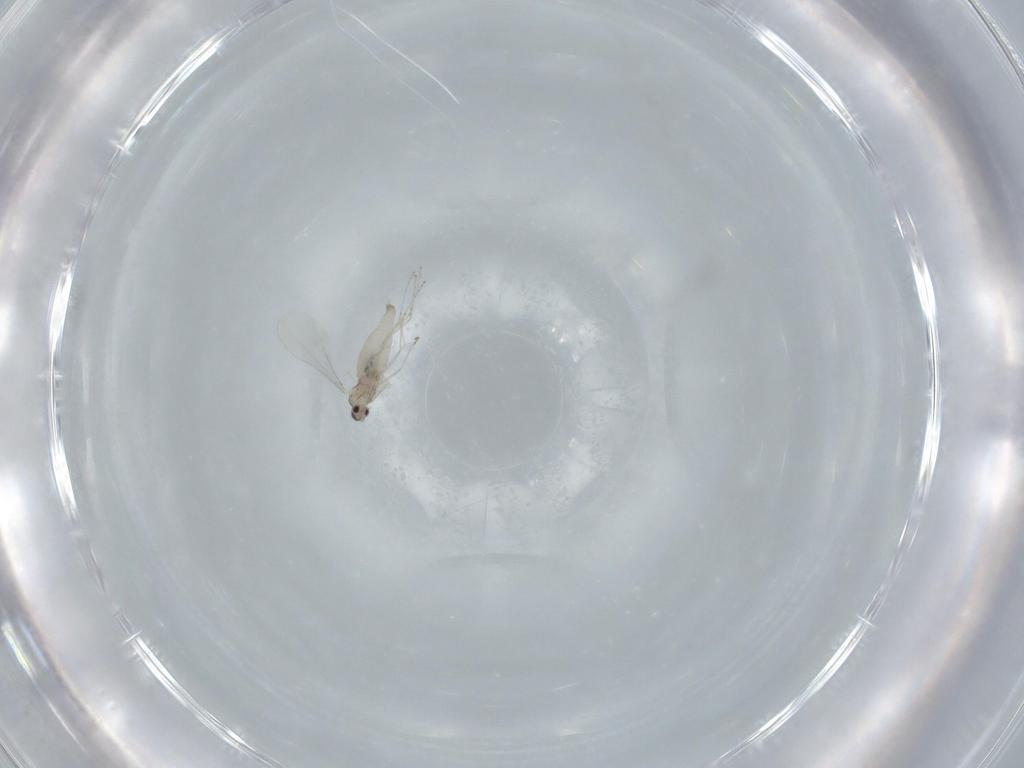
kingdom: Animalia
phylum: Arthropoda
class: Insecta
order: Diptera
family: Cecidomyiidae
